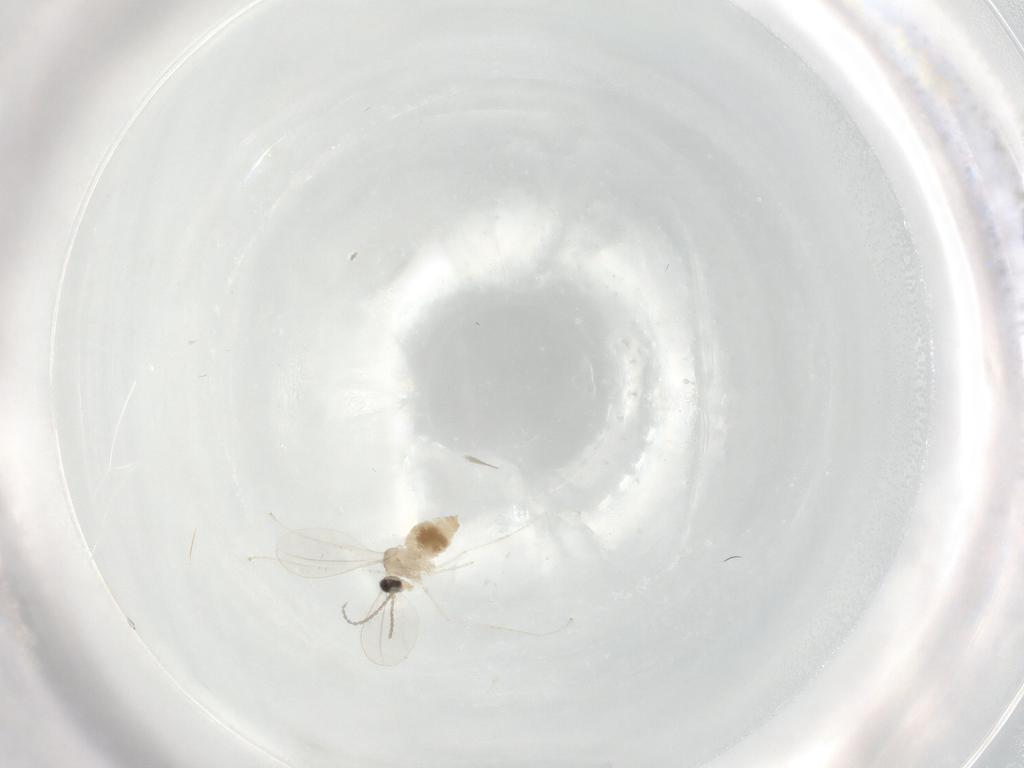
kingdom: Animalia
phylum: Arthropoda
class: Insecta
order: Diptera
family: Cecidomyiidae
